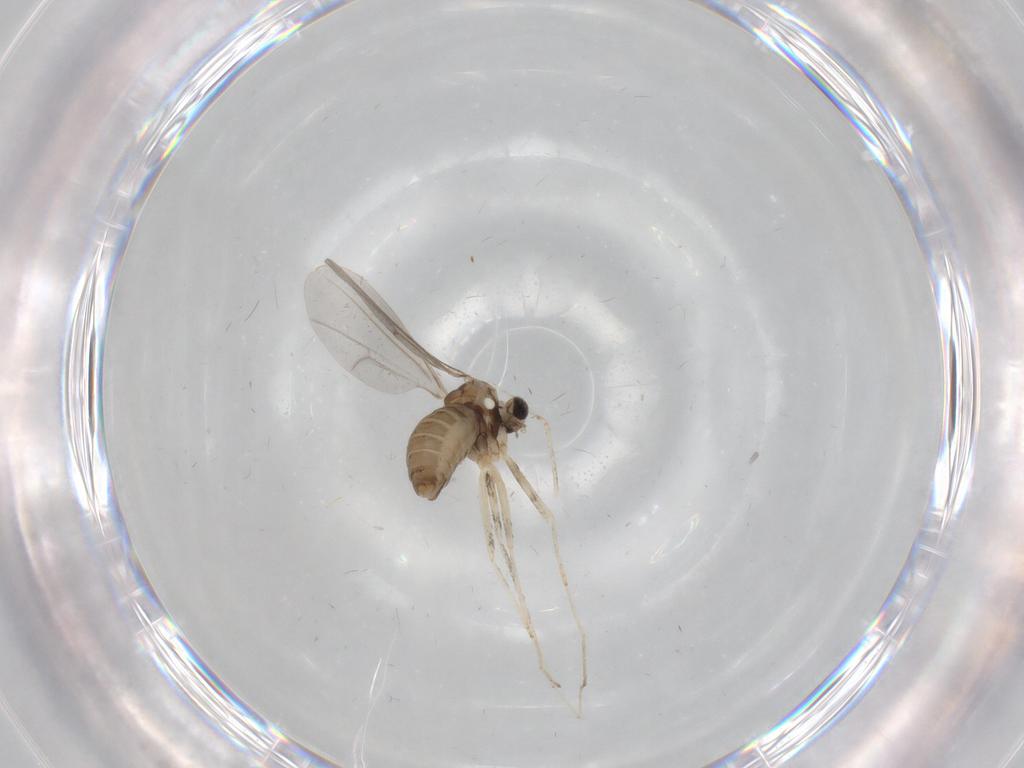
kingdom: Animalia
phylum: Arthropoda
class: Insecta
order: Diptera
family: Cecidomyiidae
